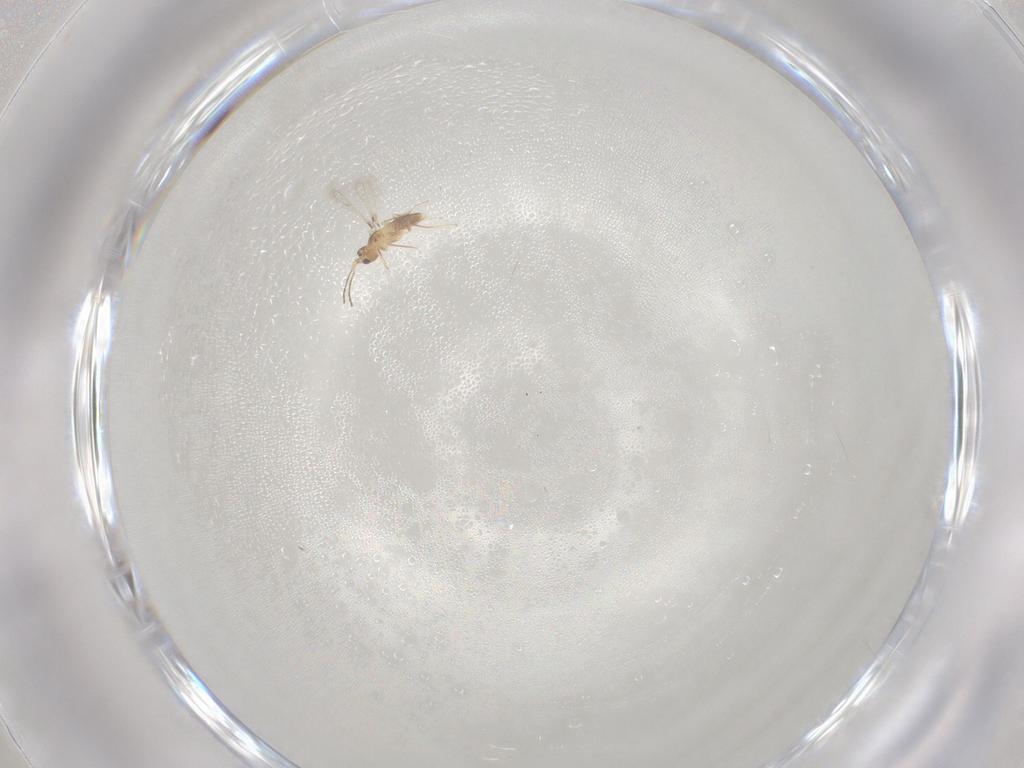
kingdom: Animalia
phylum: Arthropoda
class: Insecta
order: Hymenoptera
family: Mymaridae
